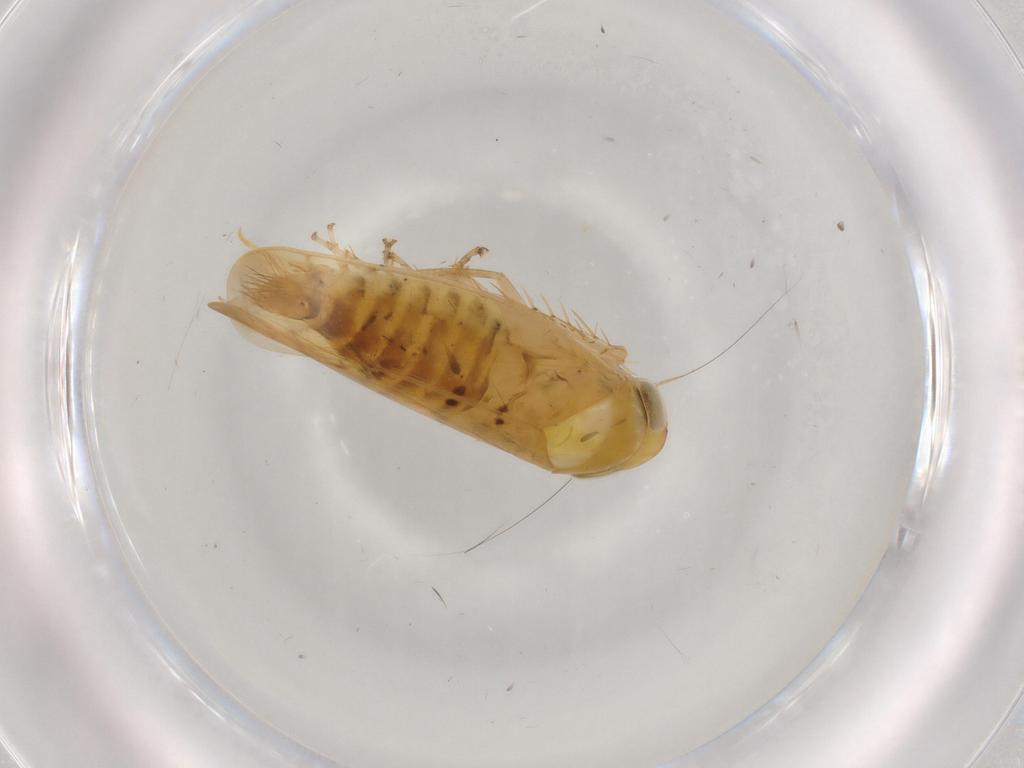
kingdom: Animalia
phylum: Arthropoda
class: Insecta
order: Hemiptera
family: Cicadellidae
